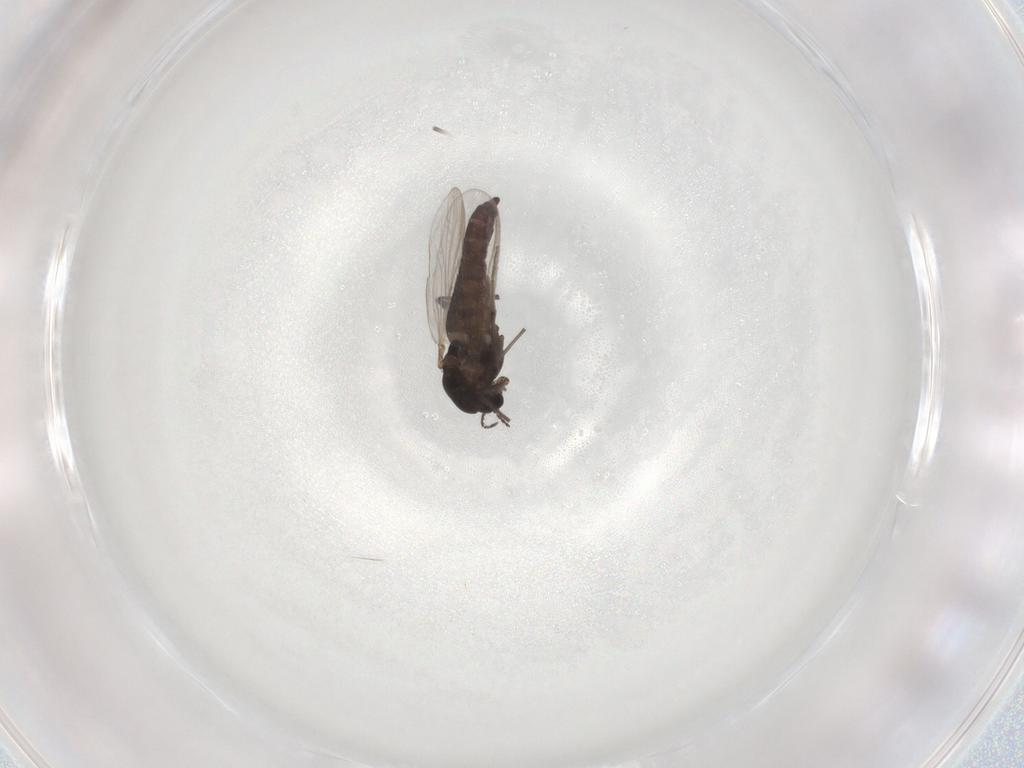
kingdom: Animalia
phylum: Arthropoda
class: Insecta
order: Diptera
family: Chironomidae
